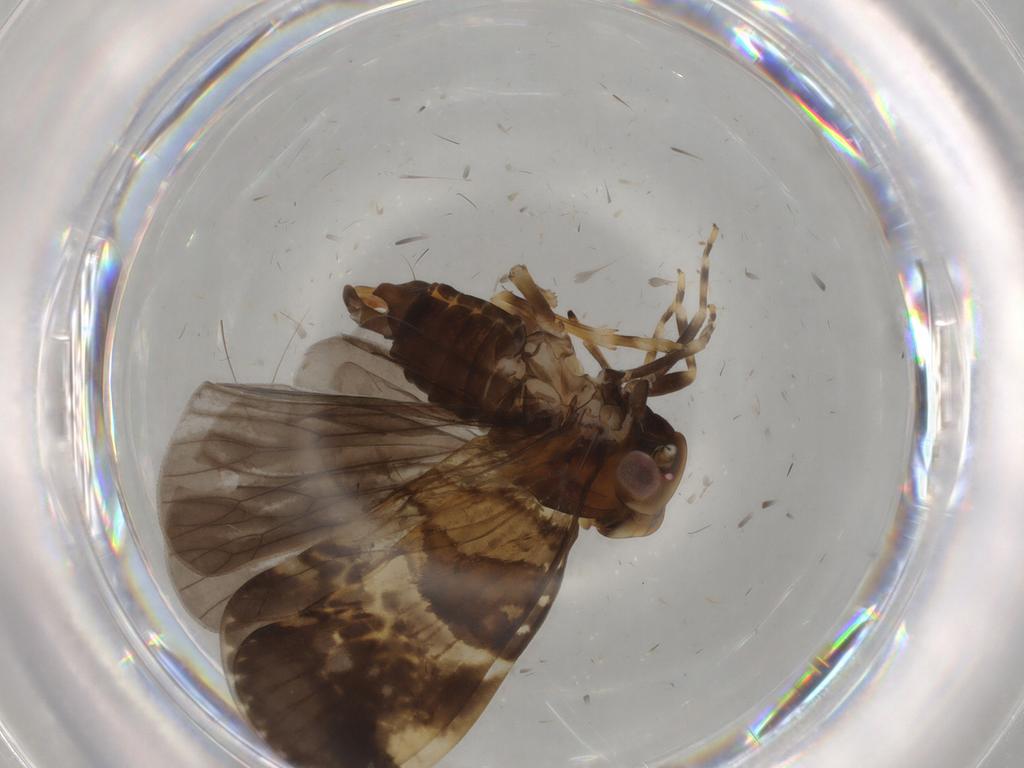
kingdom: Animalia
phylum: Arthropoda
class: Insecta
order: Hemiptera
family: Cixiidae
